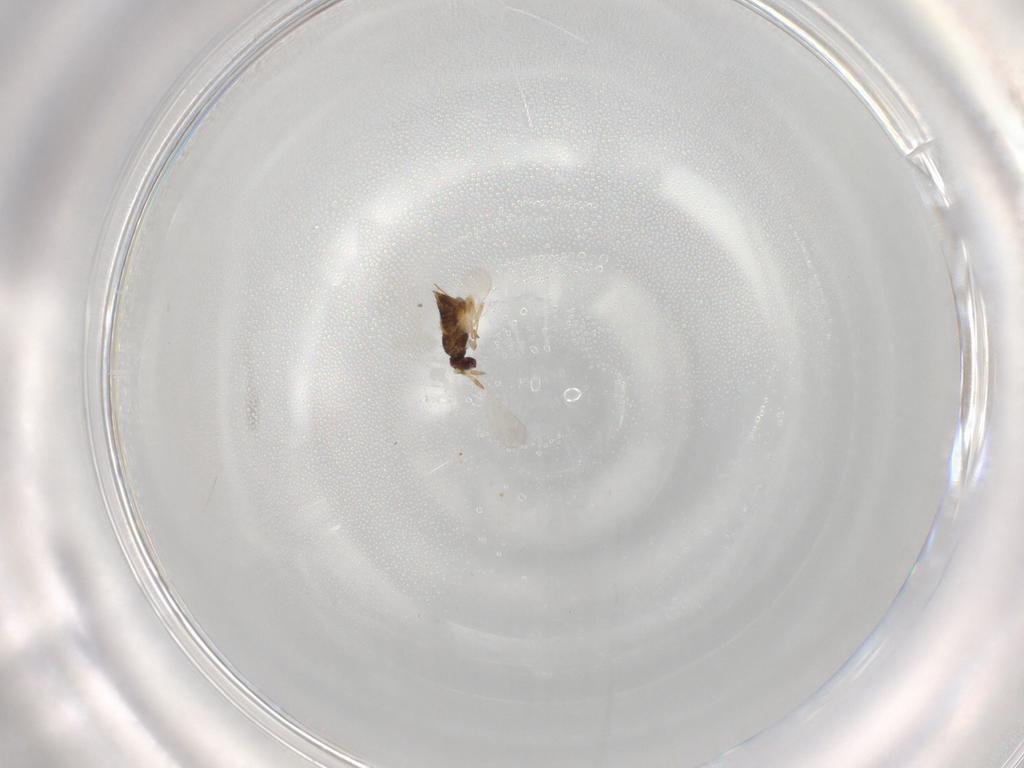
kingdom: Animalia
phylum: Arthropoda
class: Insecta
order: Hymenoptera
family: Aphelinidae
